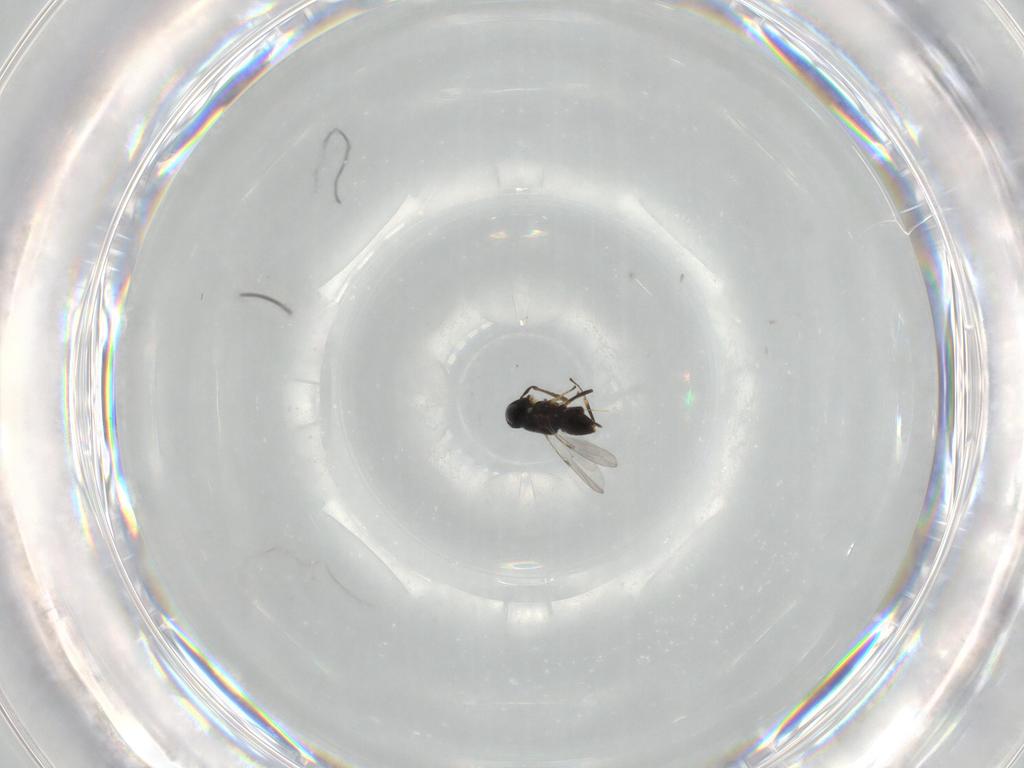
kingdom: Animalia
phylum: Arthropoda
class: Insecta
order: Hymenoptera
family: Mymaridae
